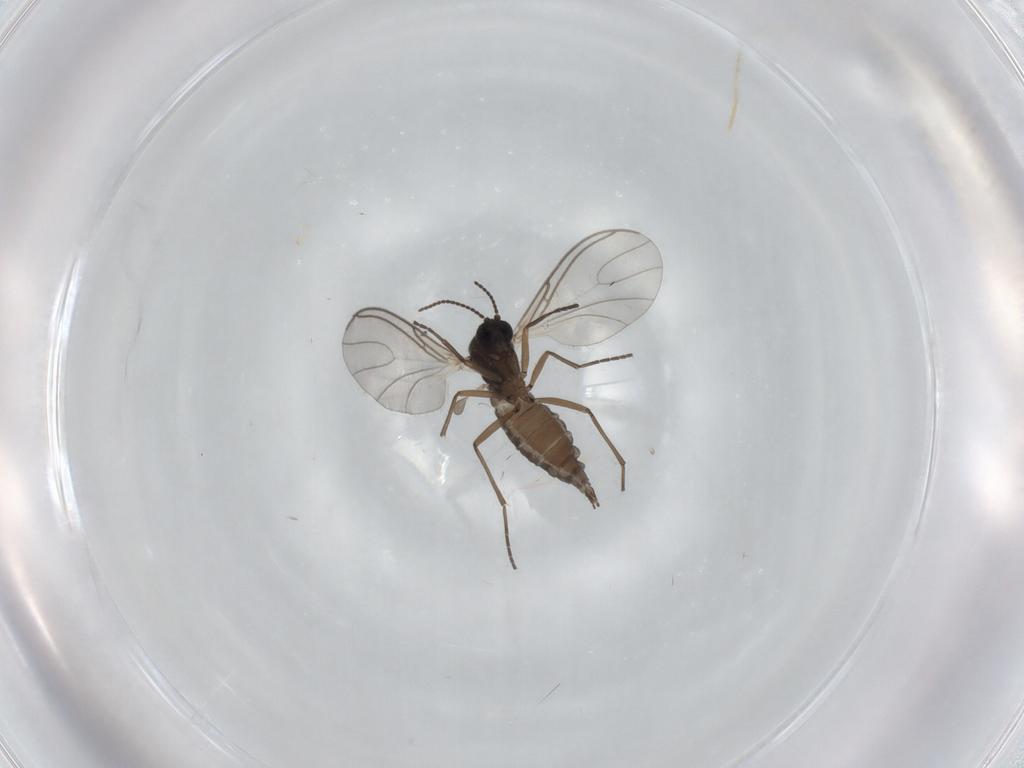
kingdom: Animalia
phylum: Arthropoda
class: Insecta
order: Diptera
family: Sciaridae
